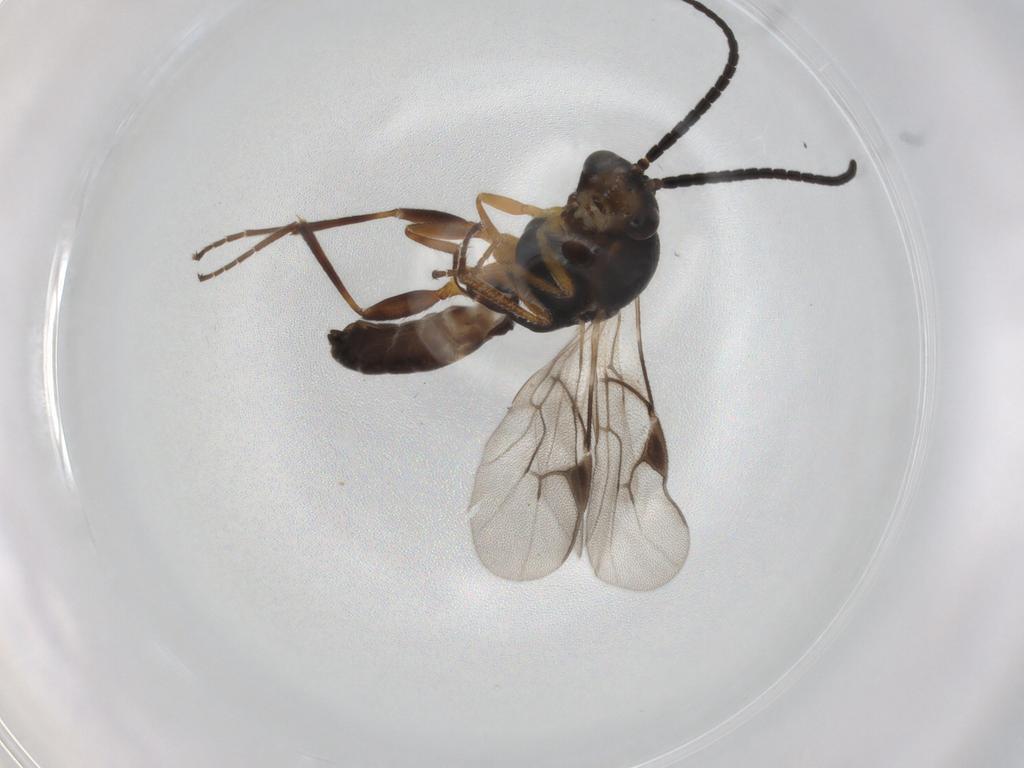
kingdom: Animalia
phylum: Arthropoda
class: Insecta
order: Hymenoptera
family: Braconidae
